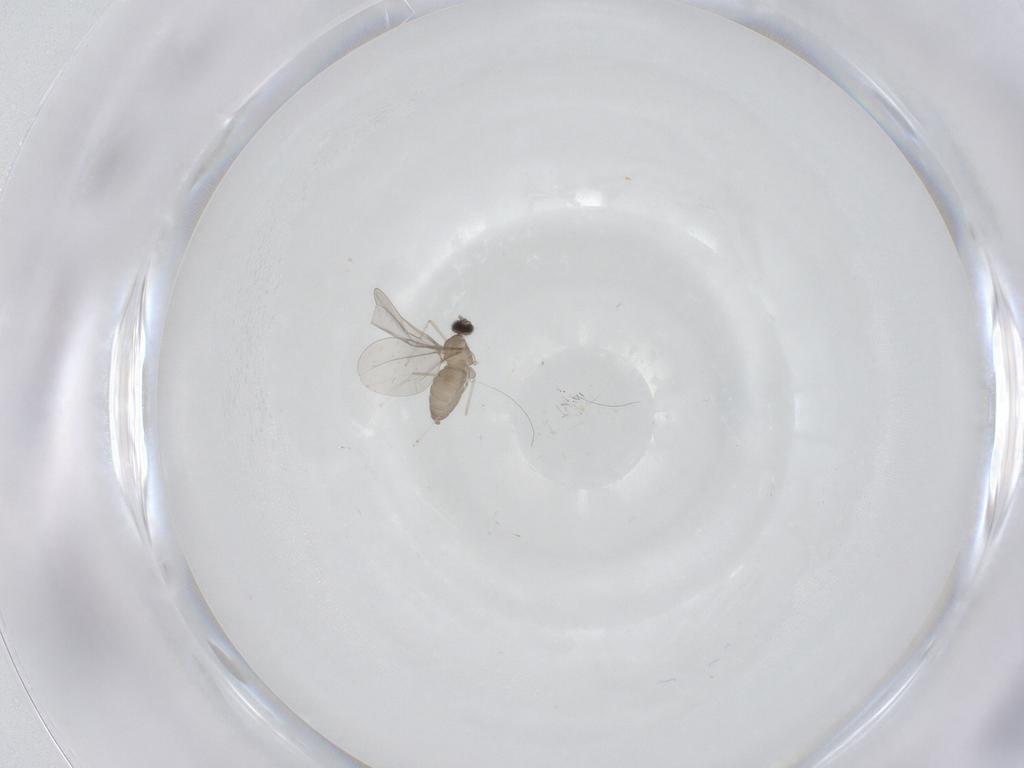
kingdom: Animalia
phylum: Arthropoda
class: Insecta
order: Diptera
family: Cecidomyiidae
